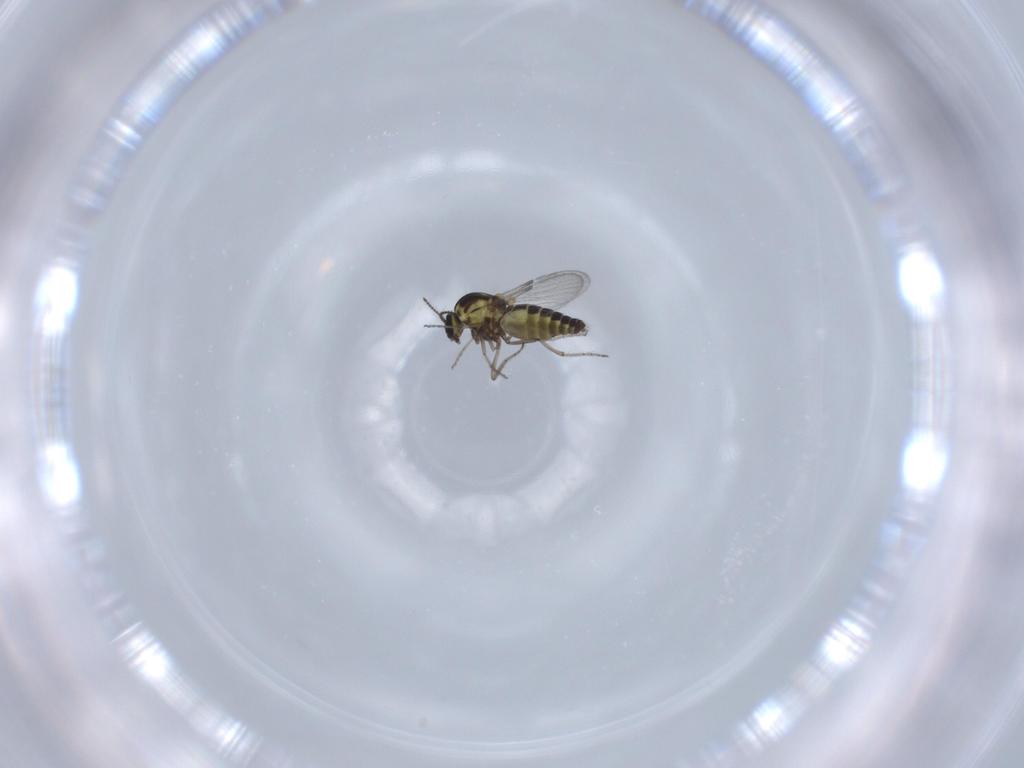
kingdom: Animalia
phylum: Arthropoda
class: Insecta
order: Diptera
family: Ceratopogonidae
